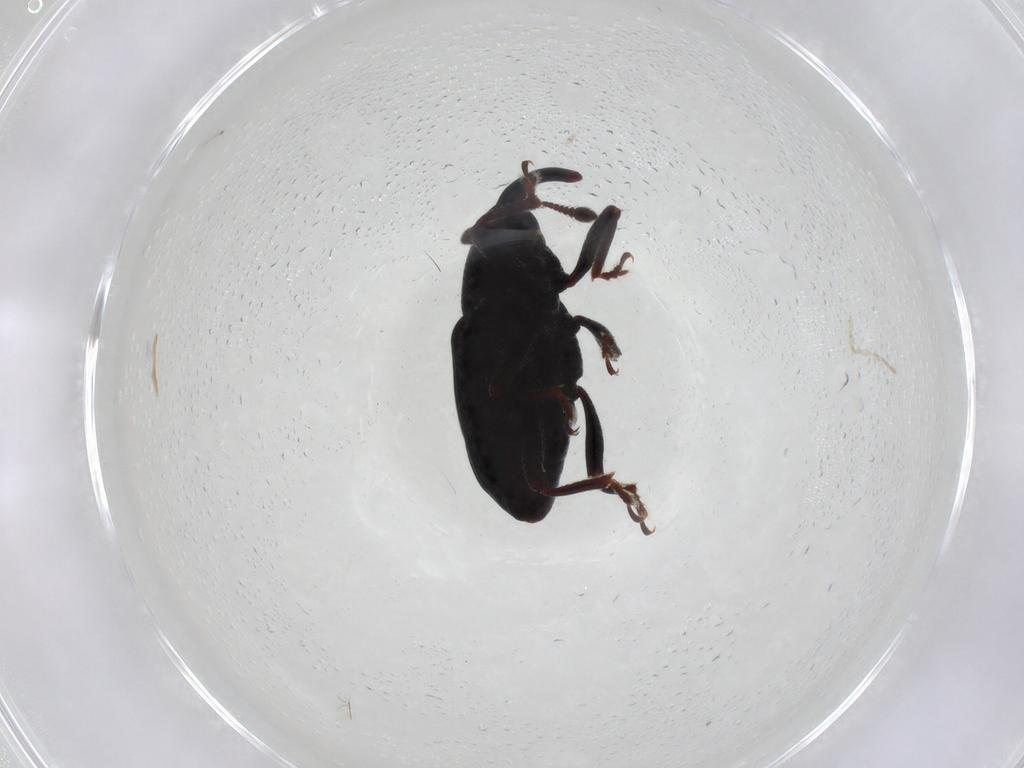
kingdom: Animalia
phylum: Arthropoda
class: Insecta
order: Coleoptera
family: Curculionidae
